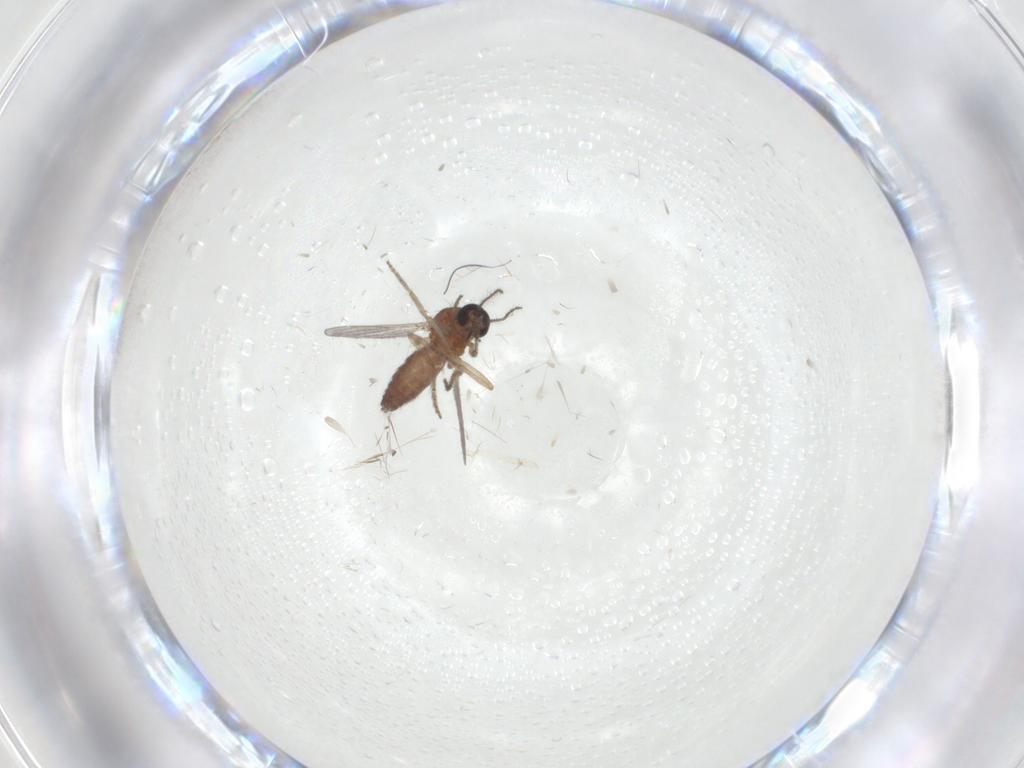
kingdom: Animalia
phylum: Arthropoda
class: Insecta
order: Diptera
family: Ceratopogonidae
